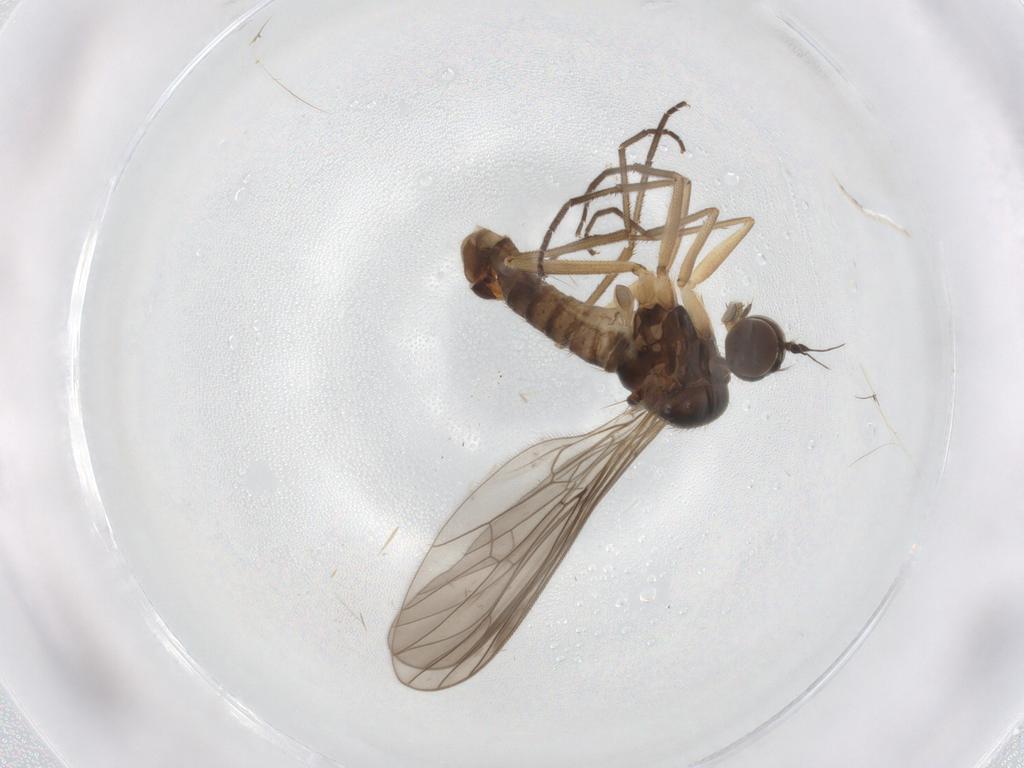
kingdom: Animalia
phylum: Arthropoda
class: Insecta
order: Diptera
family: Empididae
